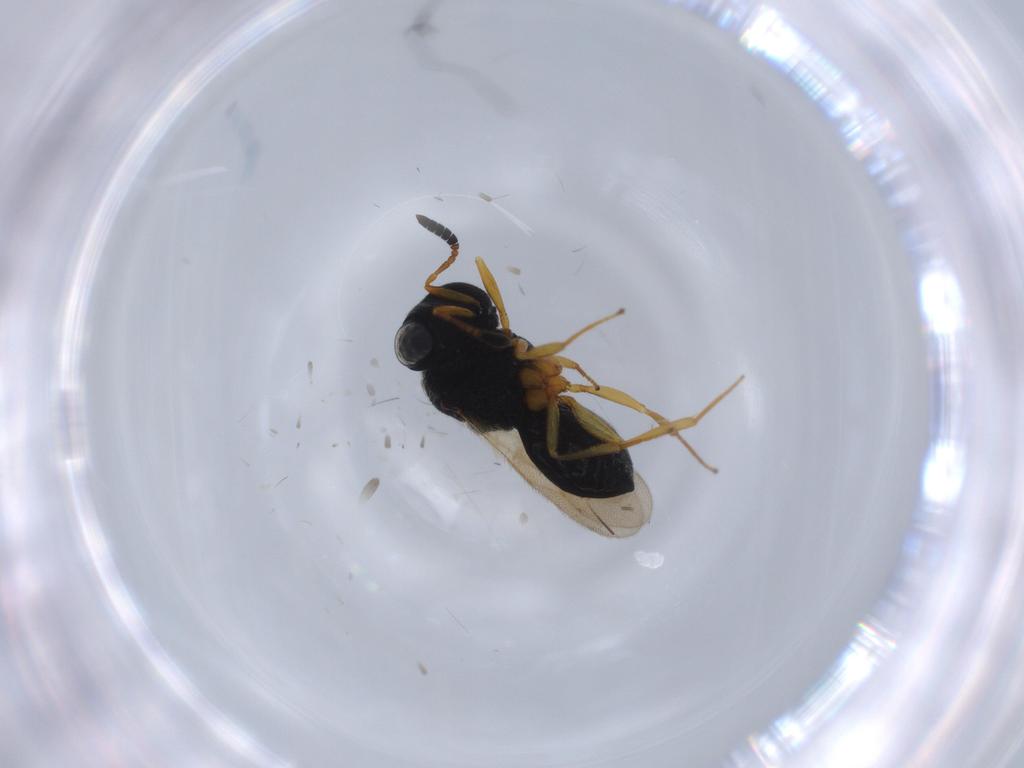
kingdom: Animalia
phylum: Arthropoda
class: Insecta
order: Hymenoptera
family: Scelionidae
